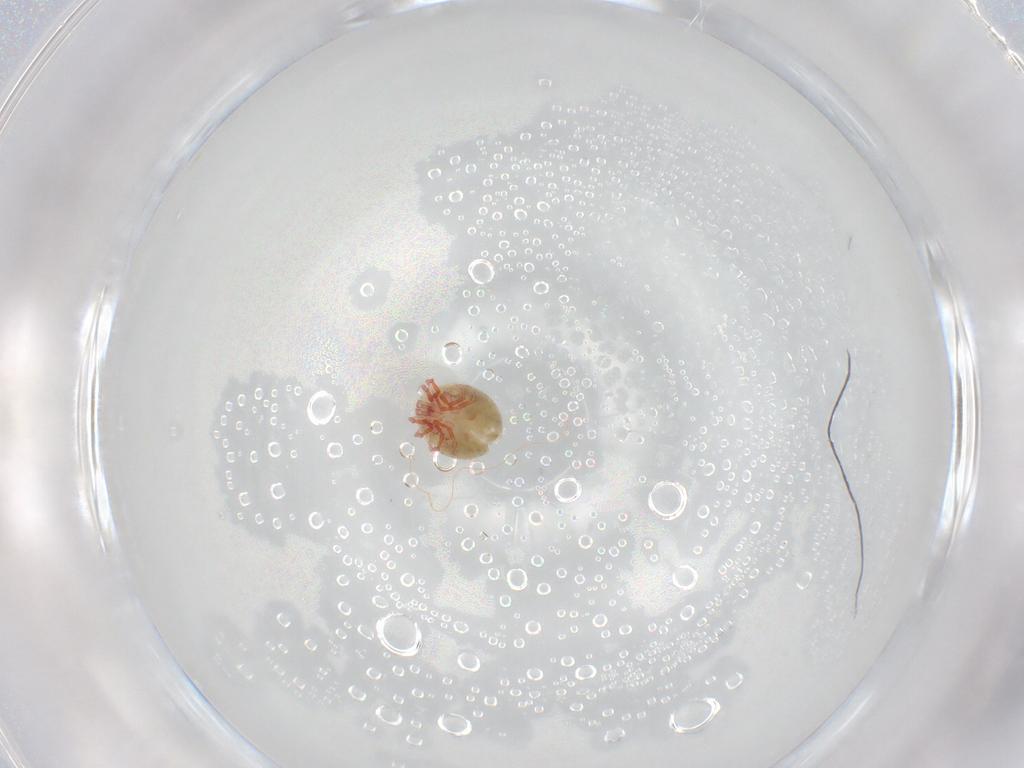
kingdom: Animalia
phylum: Arthropoda
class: Arachnida
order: Trombidiformes
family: Pionidae
